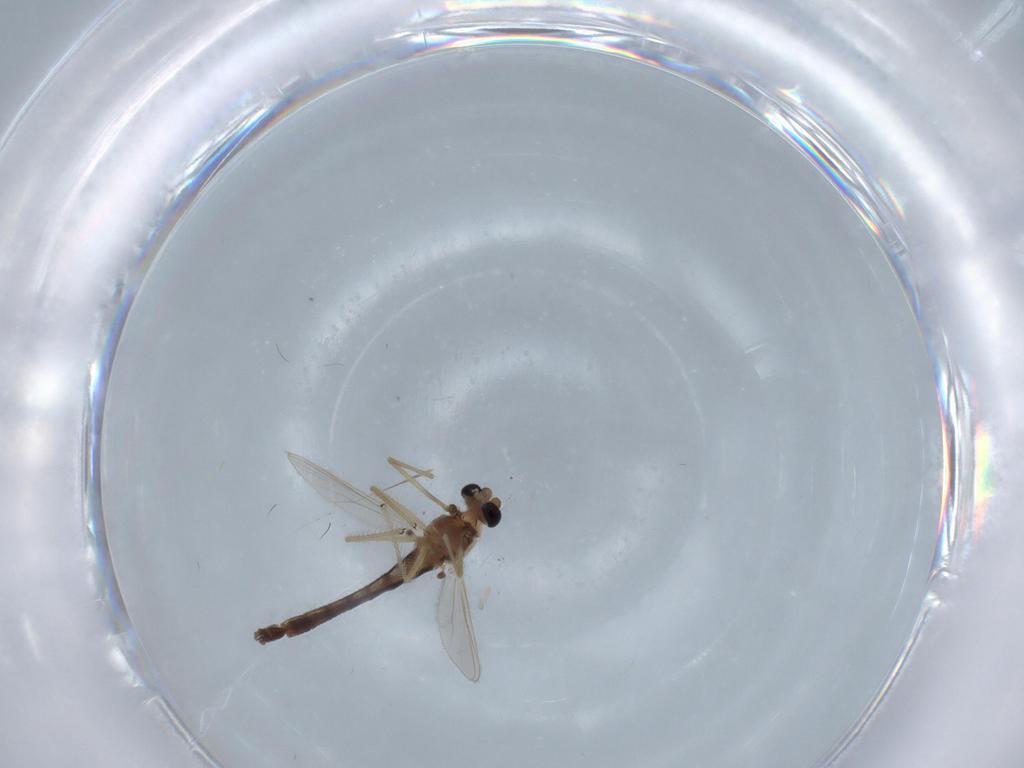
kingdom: Animalia
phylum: Arthropoda
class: Insecta
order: Diptera
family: Chironomidae
